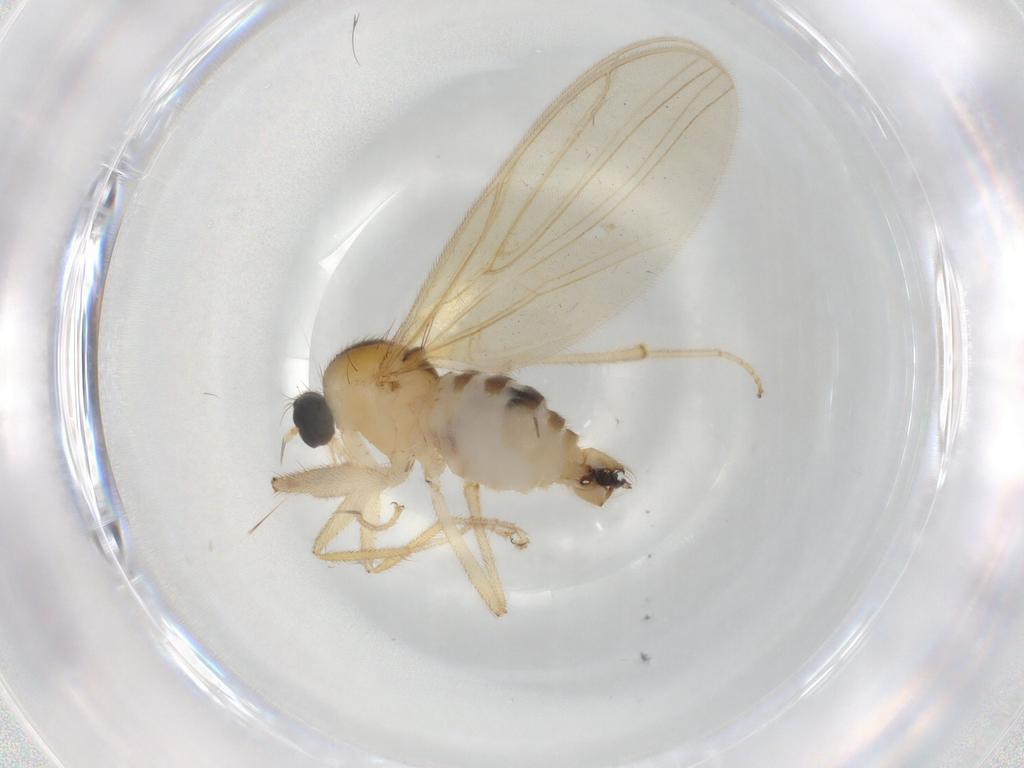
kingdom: Animalia
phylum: Arthropoda
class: Insecta
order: Diptera
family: Hybotidae
